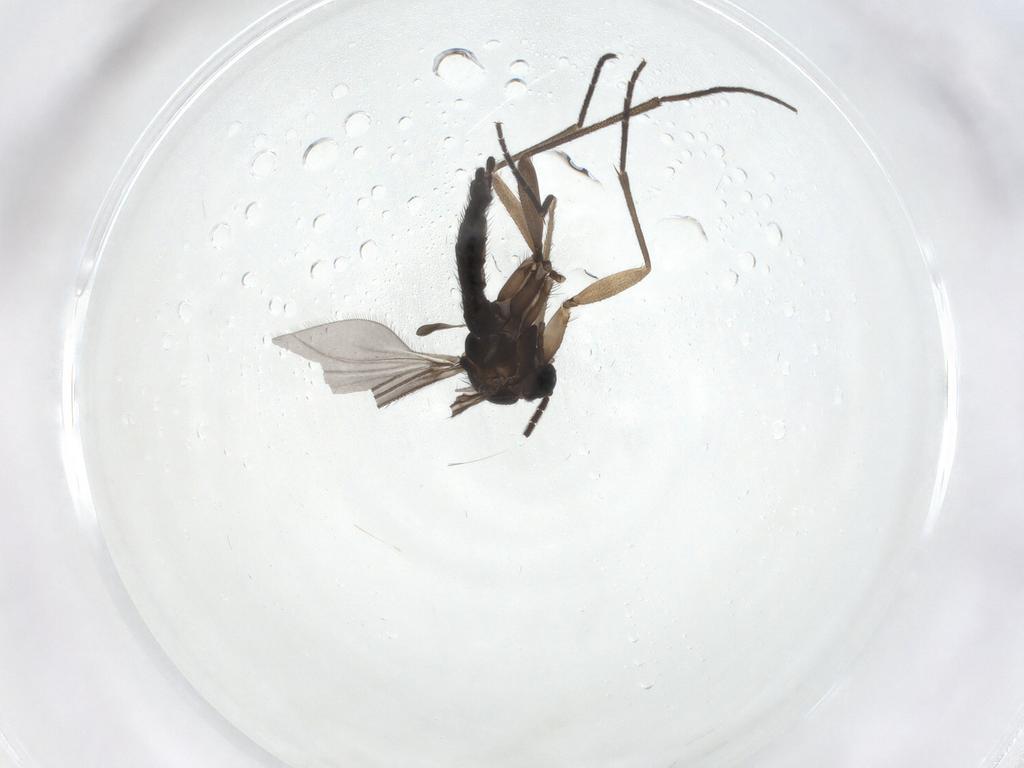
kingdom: Animalia
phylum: Arthropoda
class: Insecta
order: Diptera
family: Sciaridae
